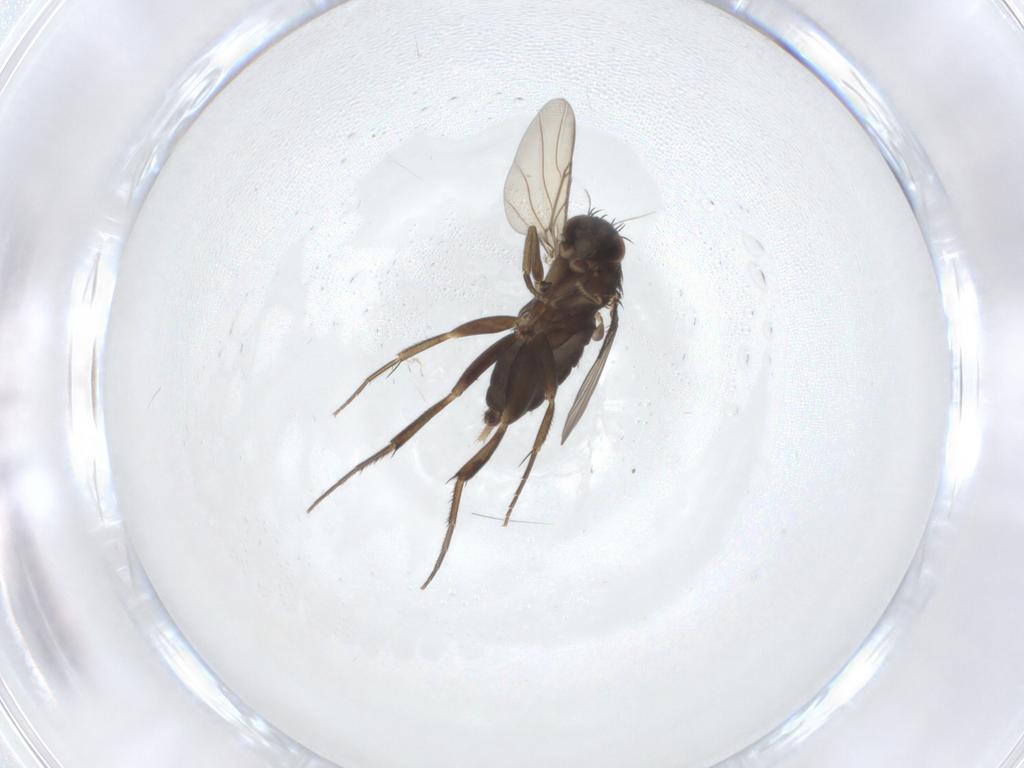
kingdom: Animalia
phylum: Arthropoda
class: Insecta
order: Diptera
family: Phoridae
